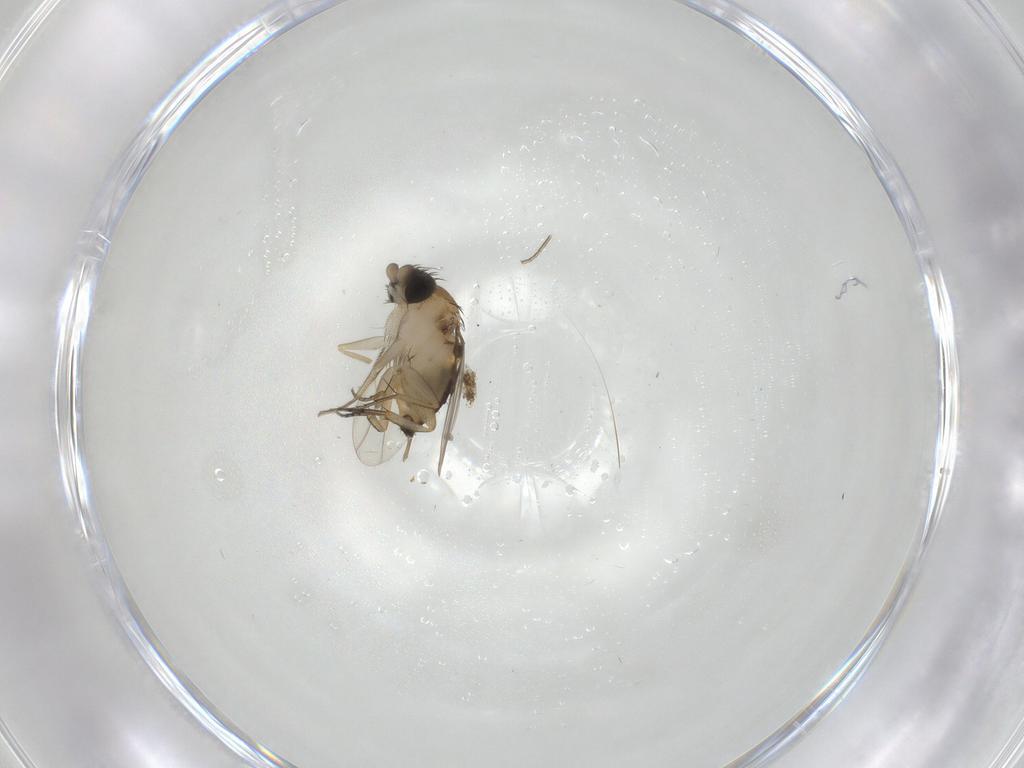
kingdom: Animalia
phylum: Arthropoda
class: Insecta
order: Diptera
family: Phoridae
